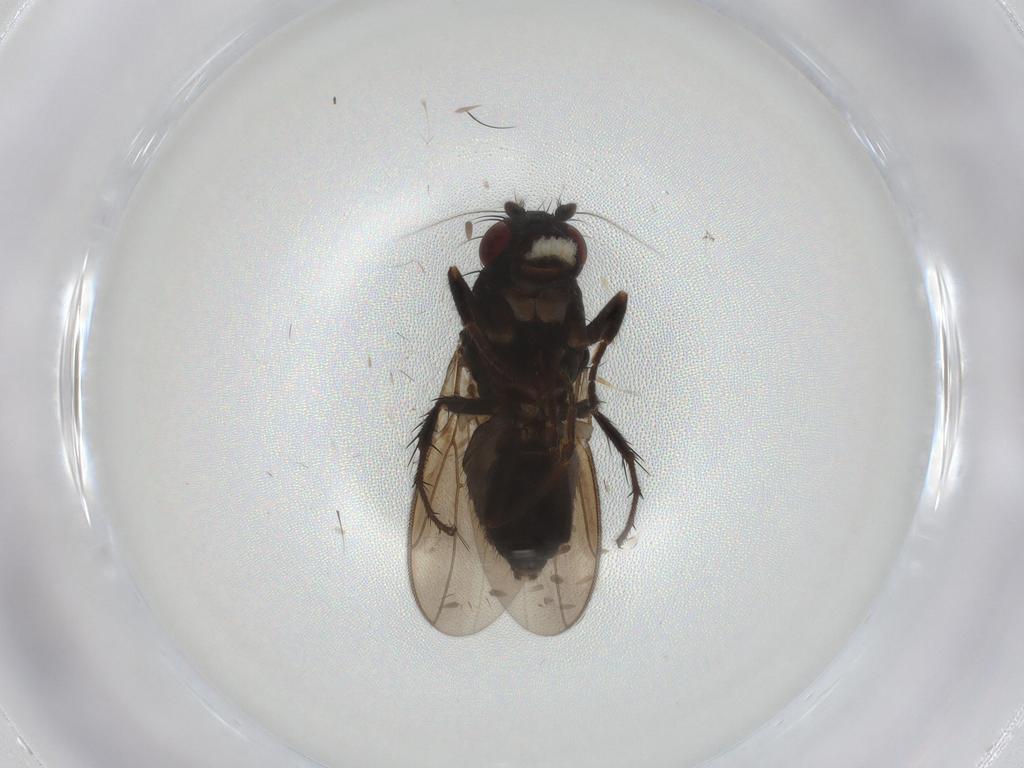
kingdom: Animalia
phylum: Arthropoda
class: Insecta
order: Diptera
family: Sphaeroceridae
